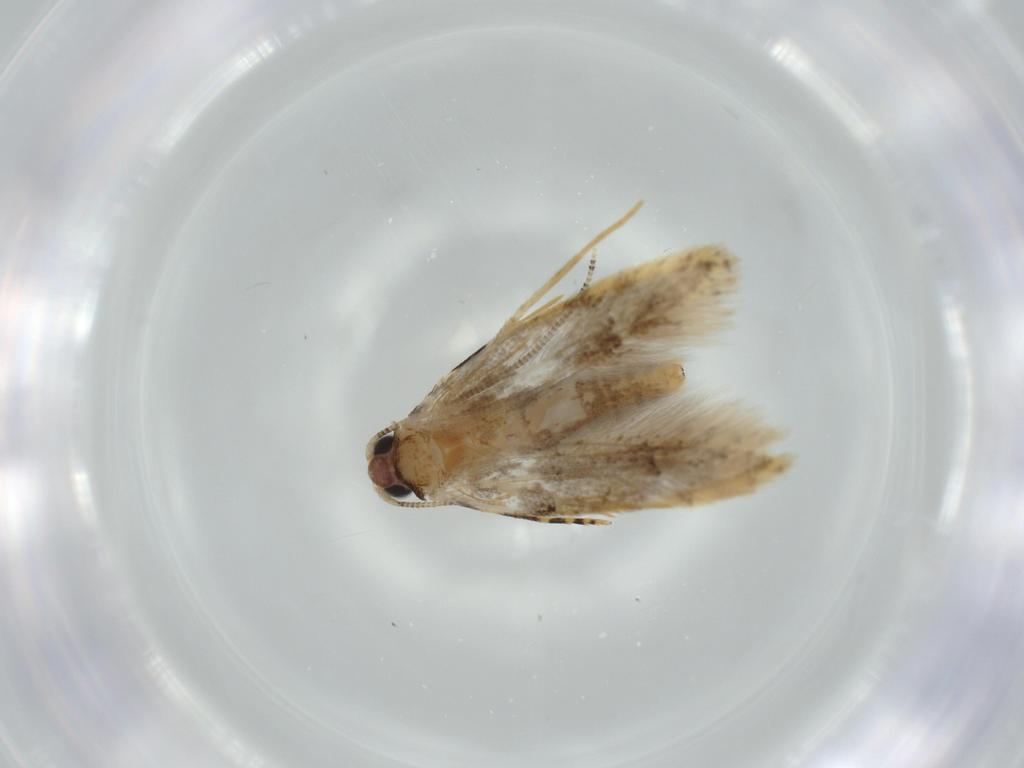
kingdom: Animalia
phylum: Arthropoda
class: Insecta
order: Lepidoptera
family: Tineidae
